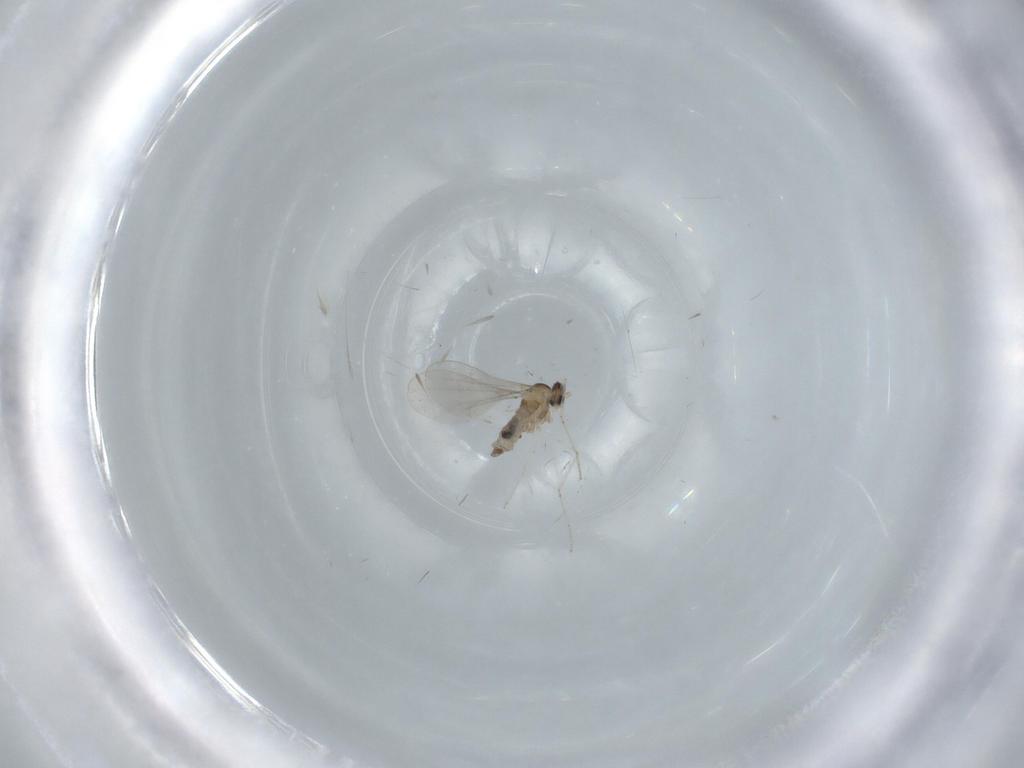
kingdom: Animalia
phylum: Arthropoda
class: Insecta
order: Diptera
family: Cecidomyiidae
